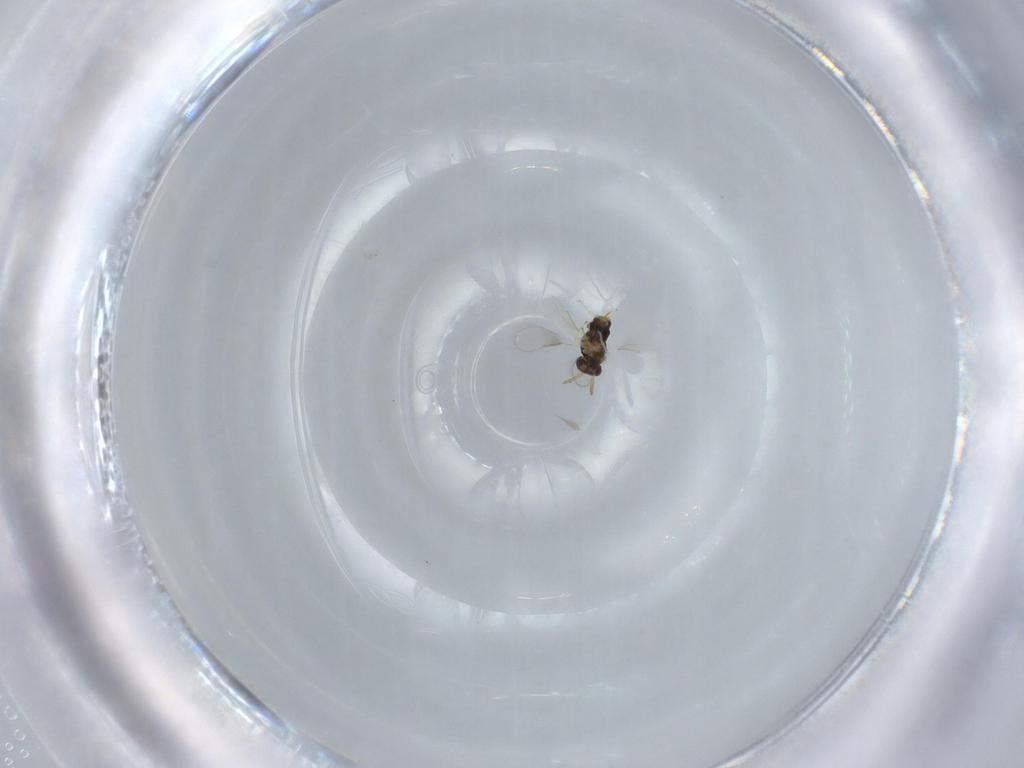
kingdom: Animalia
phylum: Arthropoda
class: Insecta
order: Hymenoptera
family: Aphelinidae
